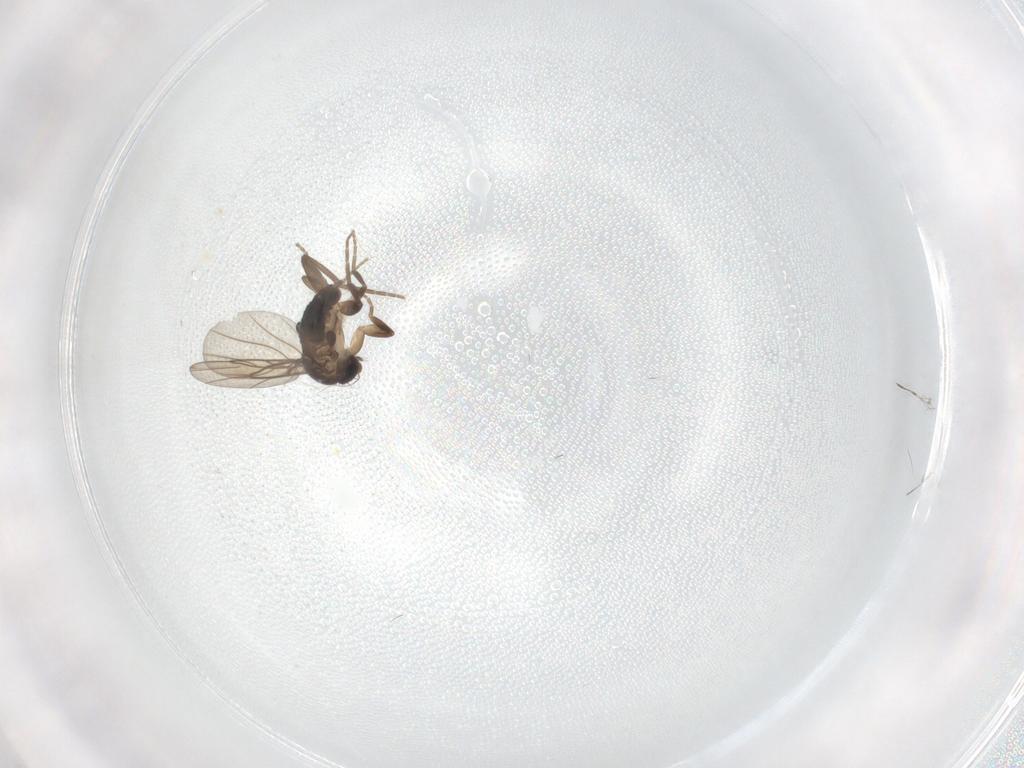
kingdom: Animalia
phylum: Arthropoda
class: Insecta
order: Diptera
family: Phoridae
